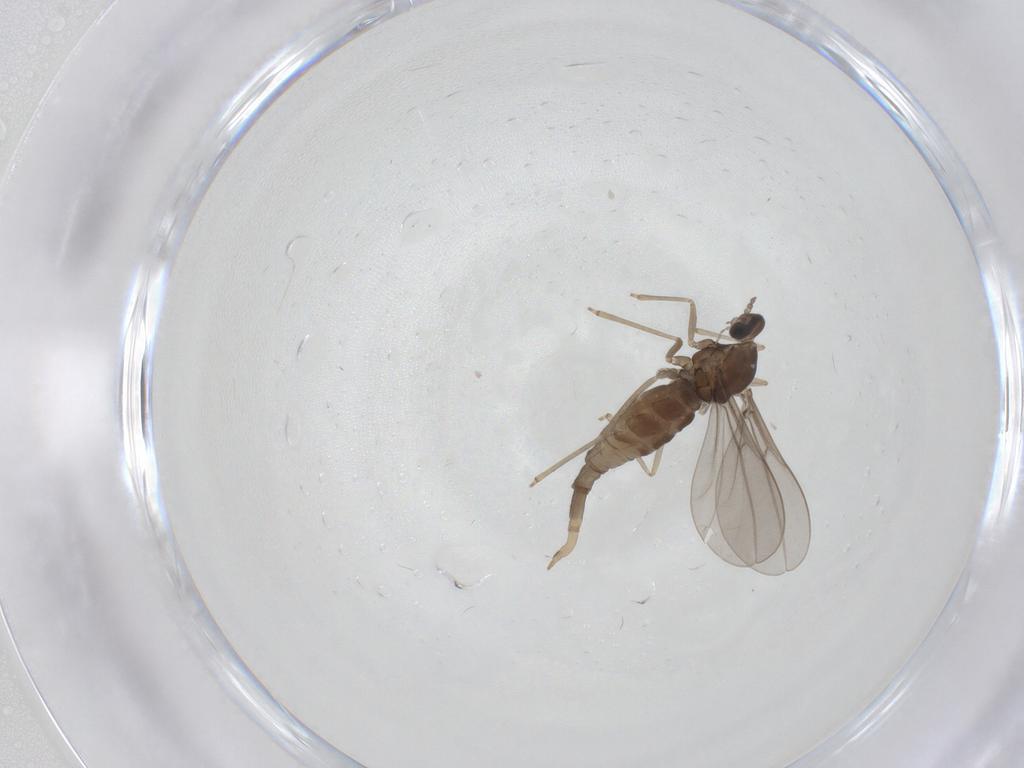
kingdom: Animalia
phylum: Arthropoda
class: Insecta
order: Diptera
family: Cecidomyiidae
